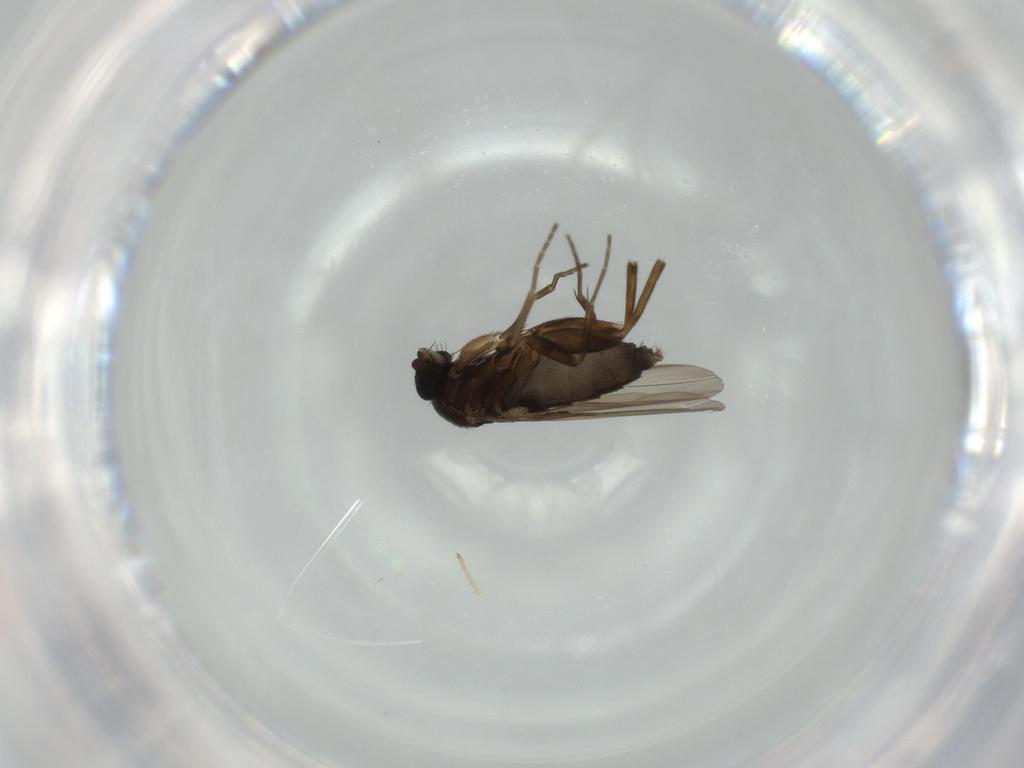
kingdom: Animalia
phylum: Arthropoda
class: Insecta
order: Diptera
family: Phoridae
